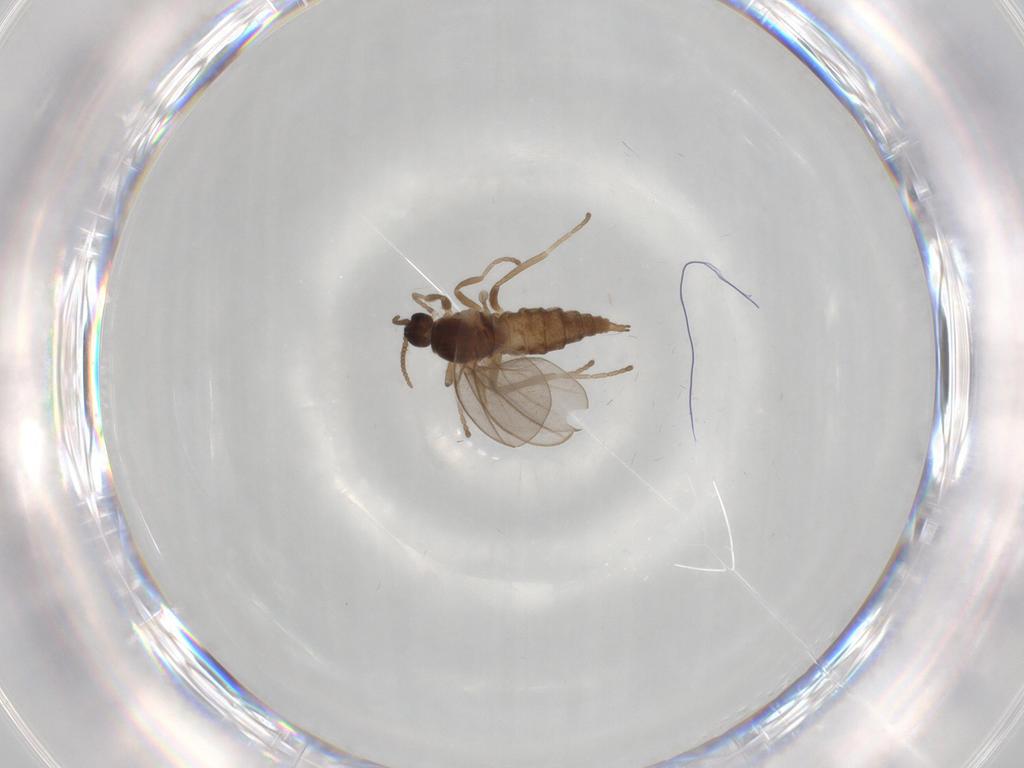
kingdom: Animalia
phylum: Arthropoda
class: Insecta
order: Diptera
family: Cecidomyiidae
